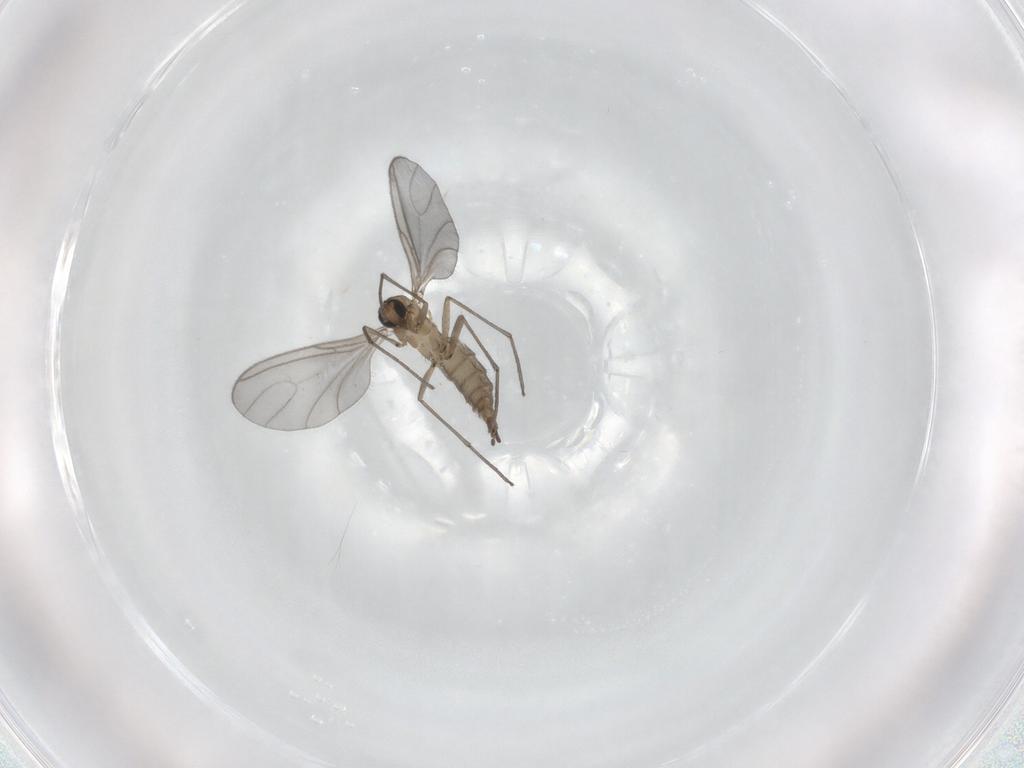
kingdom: Animalia
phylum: Arthropoda
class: Insecta
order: Diptera
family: Sciaridae
